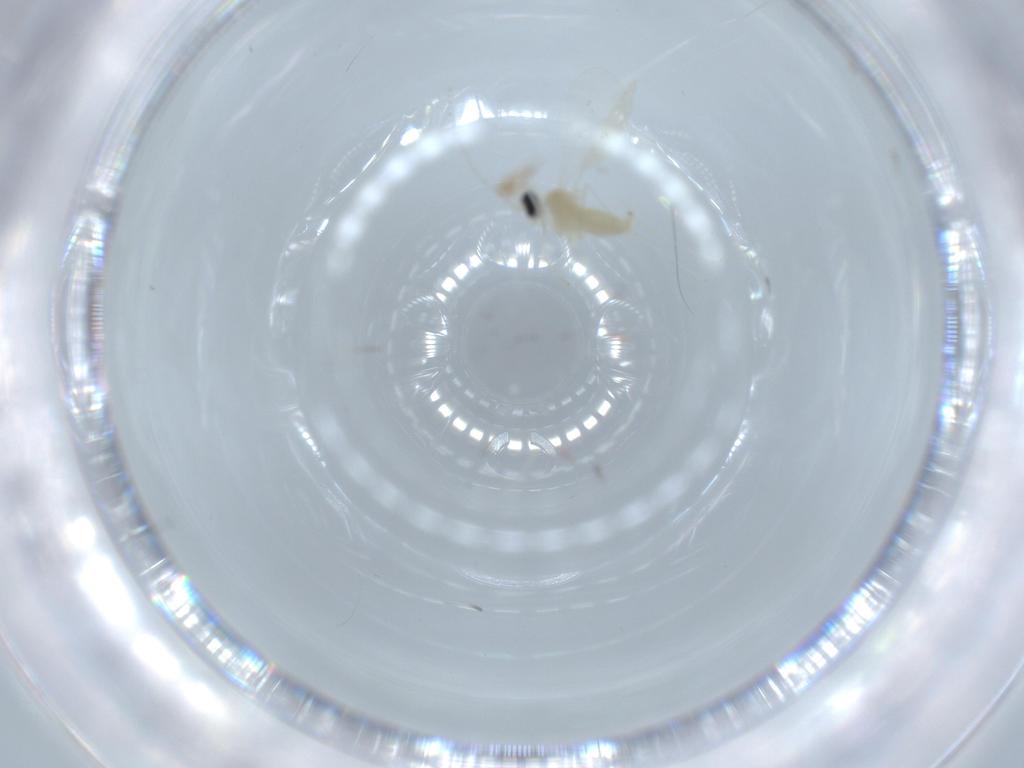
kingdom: Animalia
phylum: Arthropoda
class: Insecta
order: Diptera
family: Cecidomyiidae
